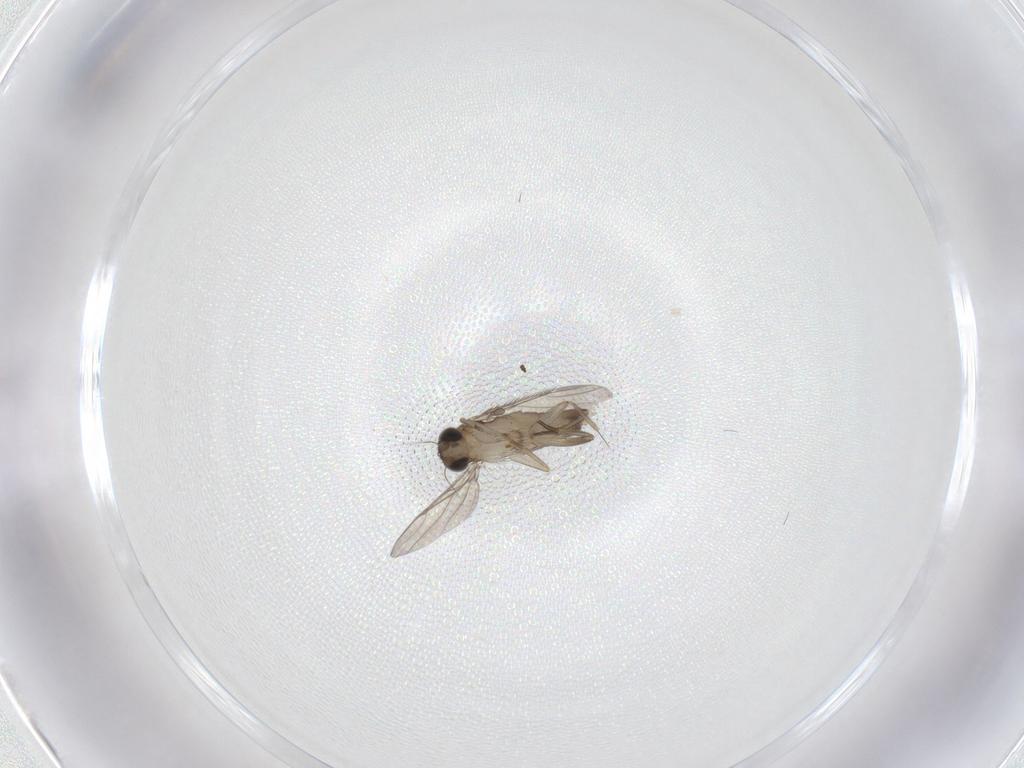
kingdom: Animalia
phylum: Arthropoda
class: Insecta
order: Diptera
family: Phoridae
